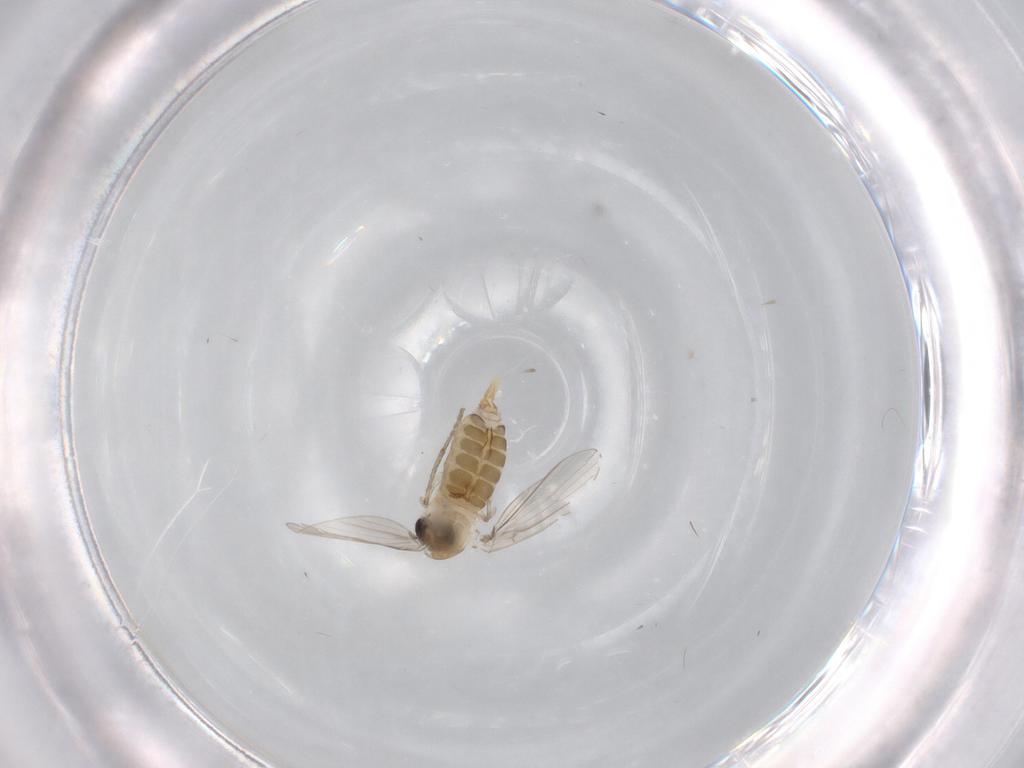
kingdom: Animalia
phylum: Arthropoda
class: Insecta
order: Diptera
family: Psychodidae
